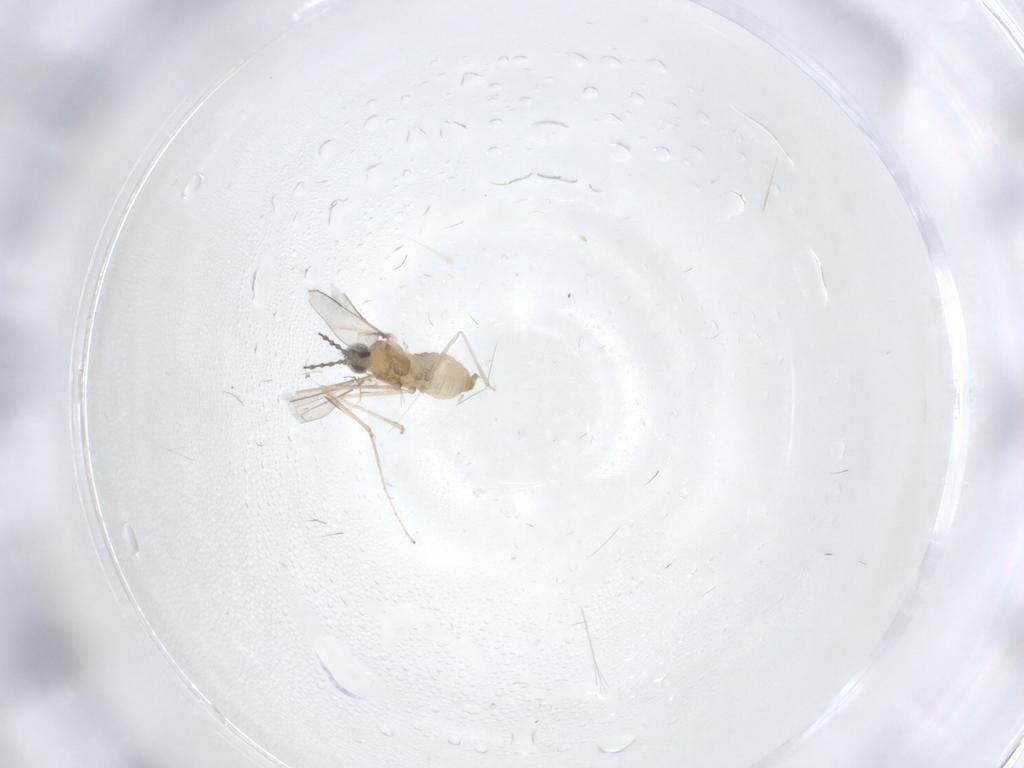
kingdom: Animalia
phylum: Arthropoda
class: Insecta
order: Diptera
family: Cecidomyiidae
